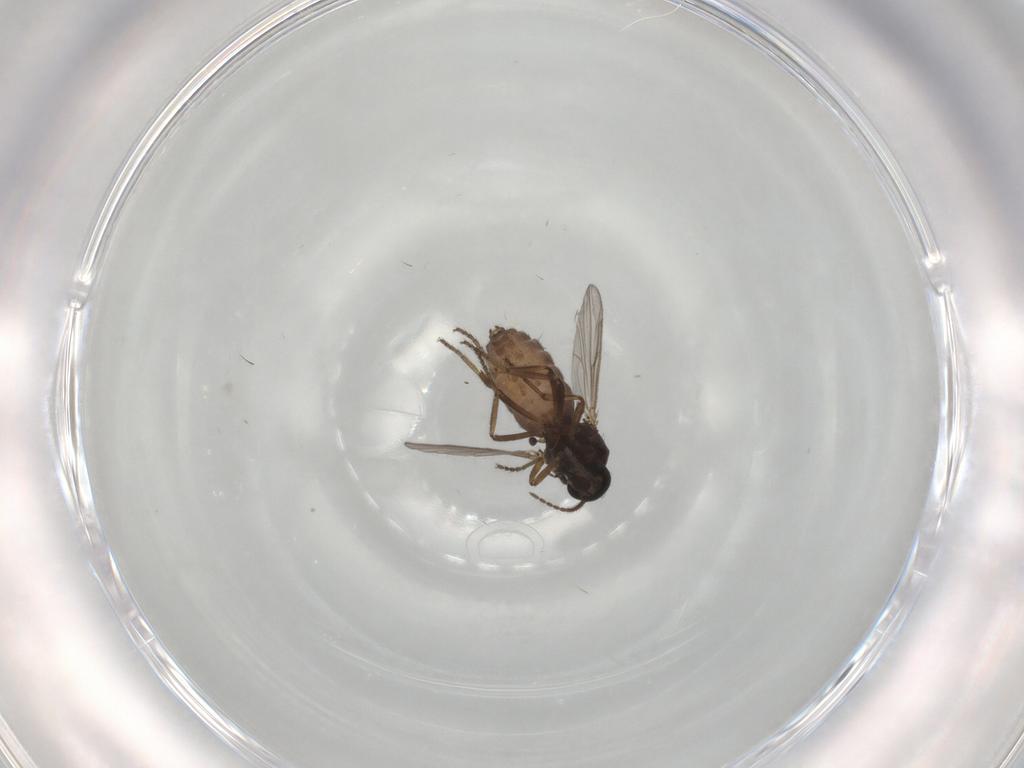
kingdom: Animalia
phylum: Arthropoda
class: Insecta
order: Diptera
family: Ceratopogonidae
